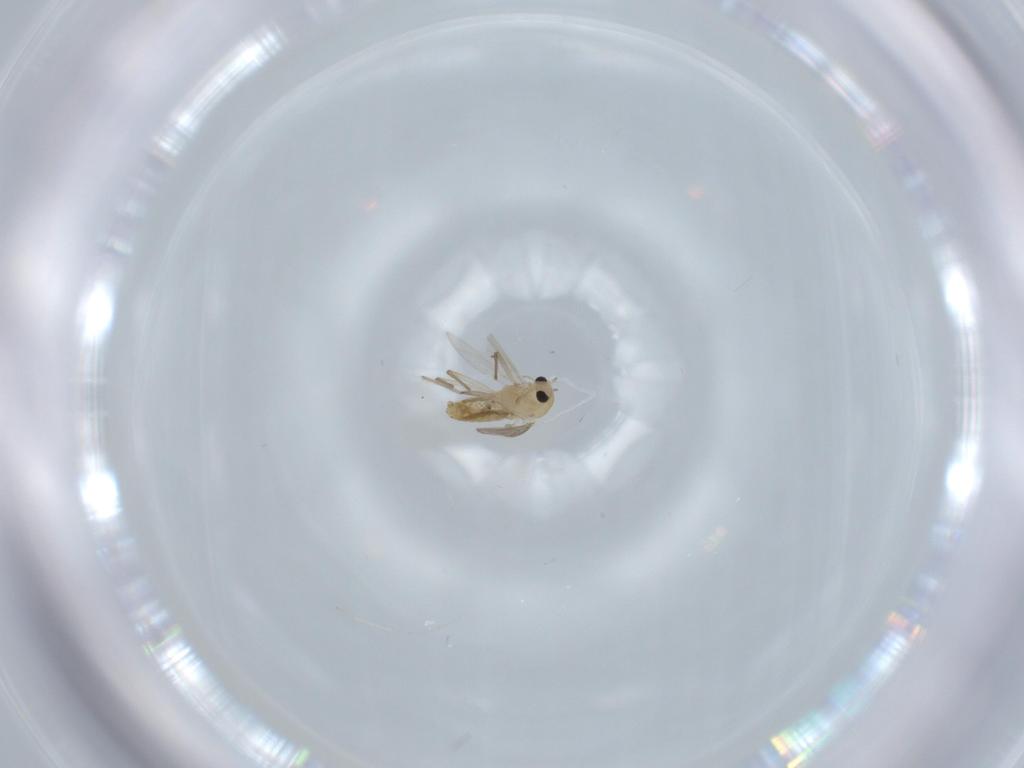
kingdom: Animalia
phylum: Arthropoda
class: Insecta
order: Diptera
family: Chironomidae
